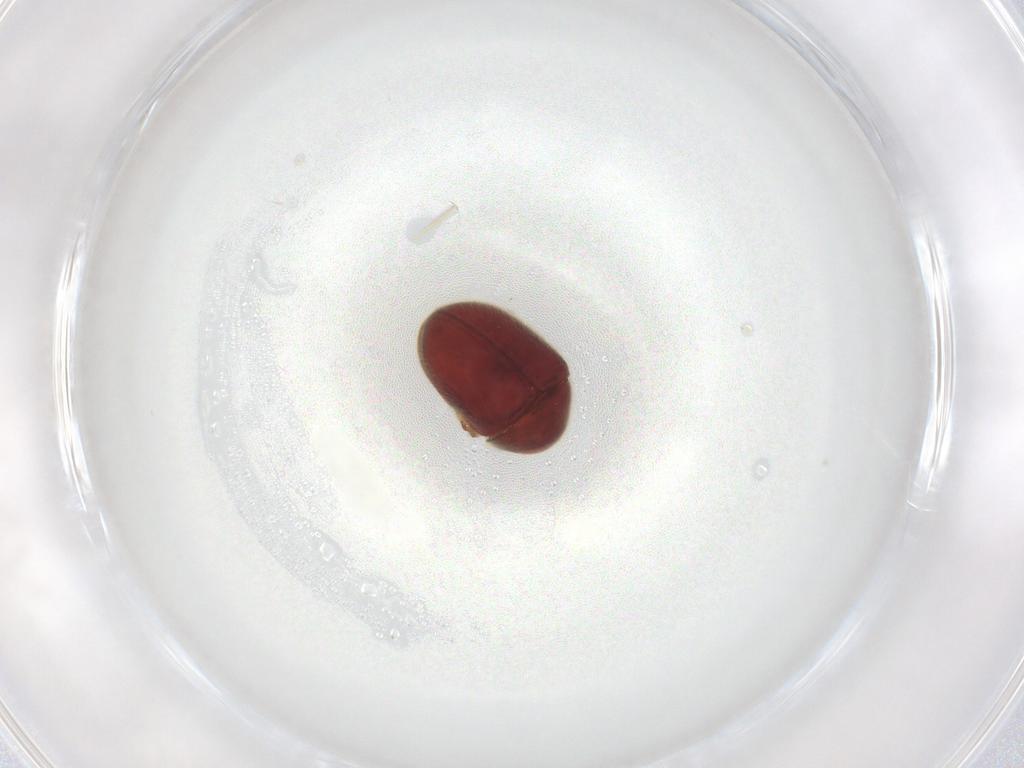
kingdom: Animalia
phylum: Arthropoda
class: Insecta
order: Coleoptera
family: Ptinidae
